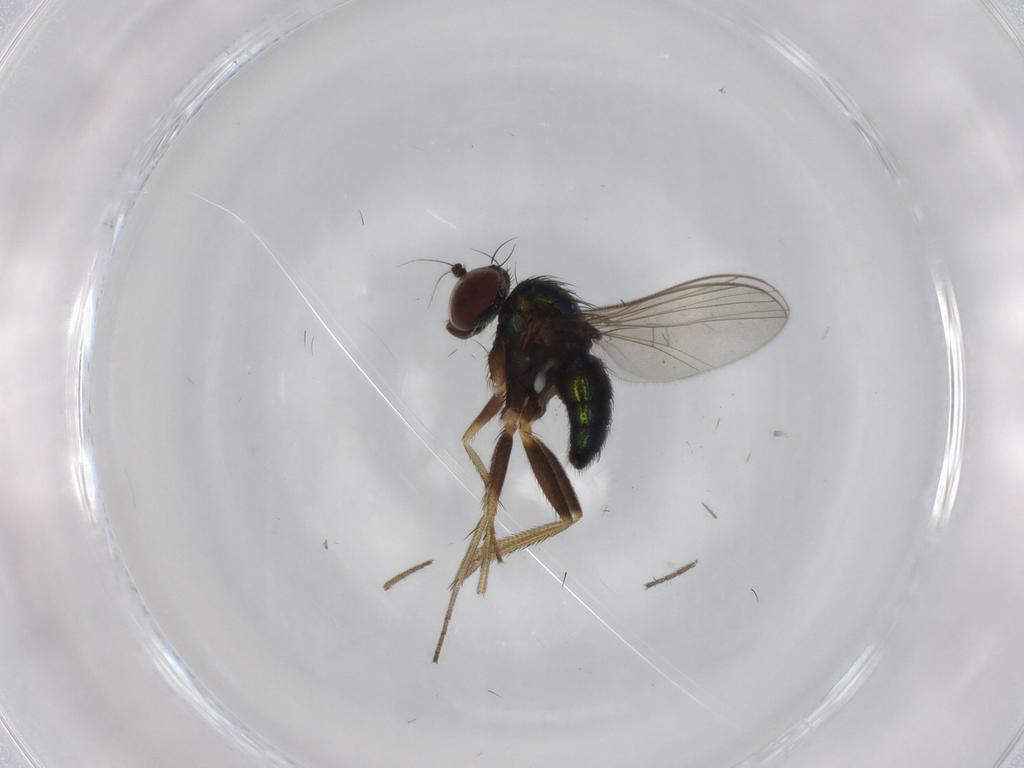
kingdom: Animalia
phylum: Arthropoda
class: Insecta
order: Diptera
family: Dolichopodidae
